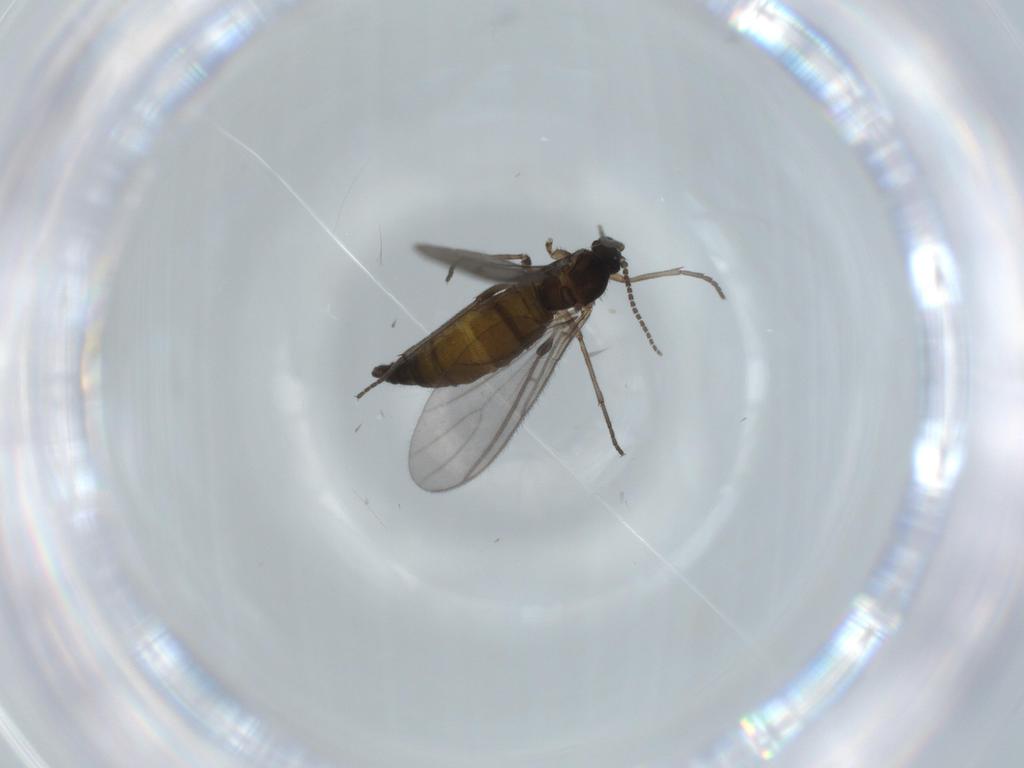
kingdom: Animalia
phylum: Arthropoda
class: Insecta
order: Diptera
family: Sciaridae
